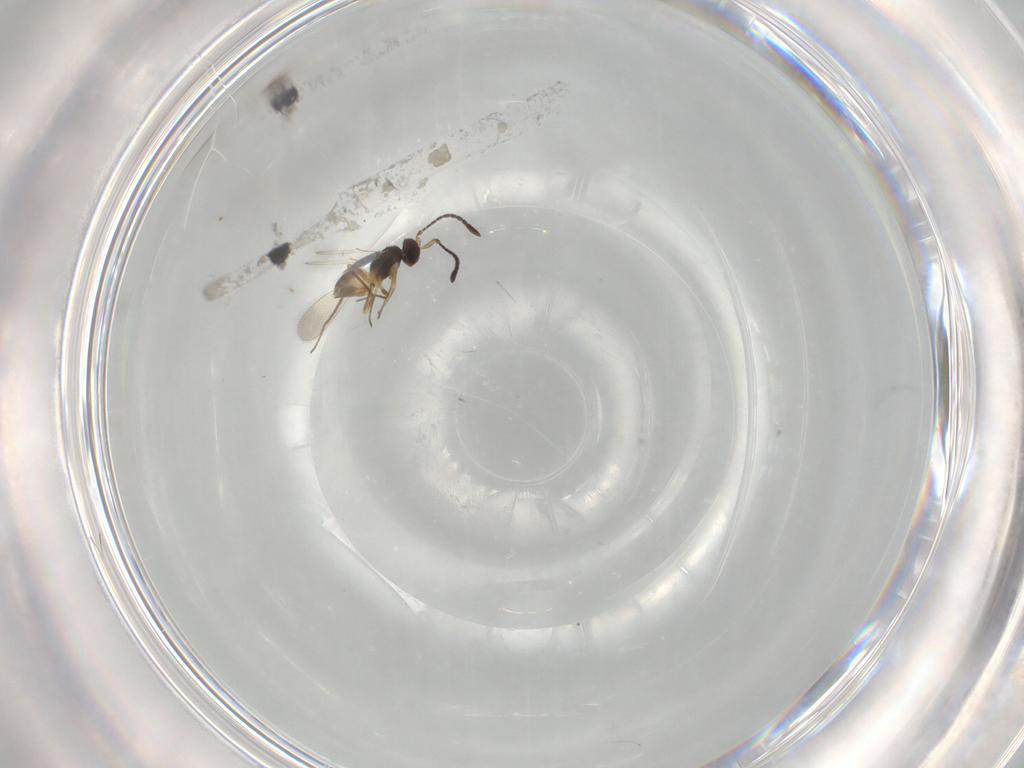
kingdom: Animalia
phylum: Arthropoda
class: Insecta
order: Hymenoptera
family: Mymaridae
